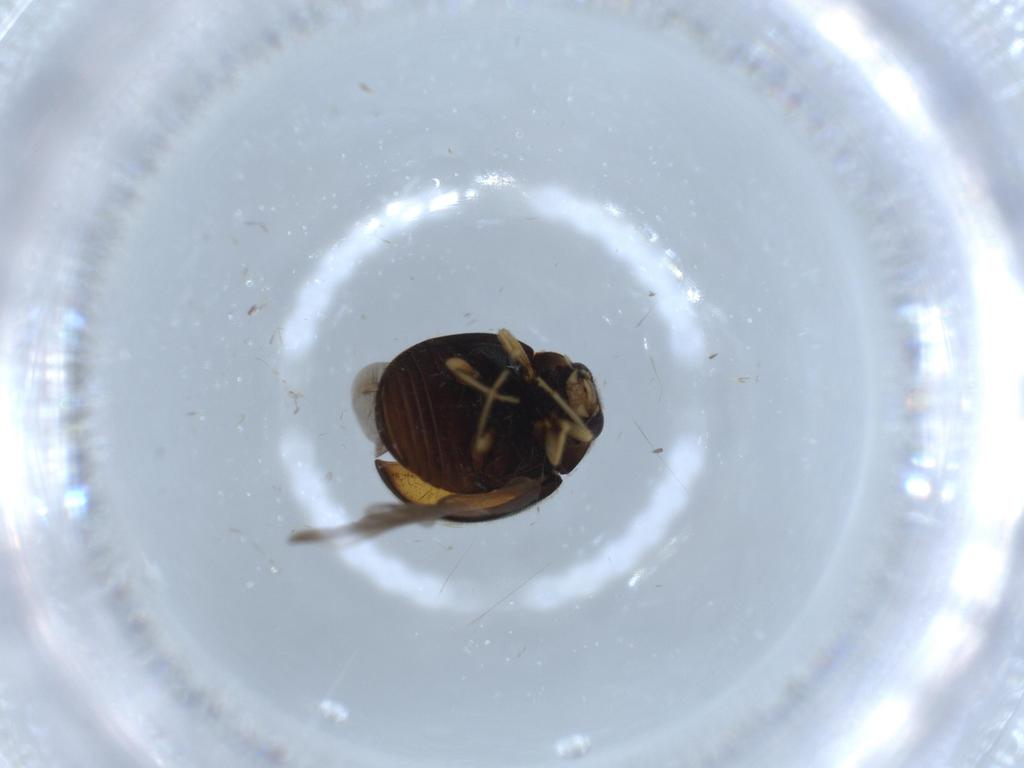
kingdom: Animalia
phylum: Arthropoda
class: Insecta
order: Coleoptera
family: Coccinellidae
